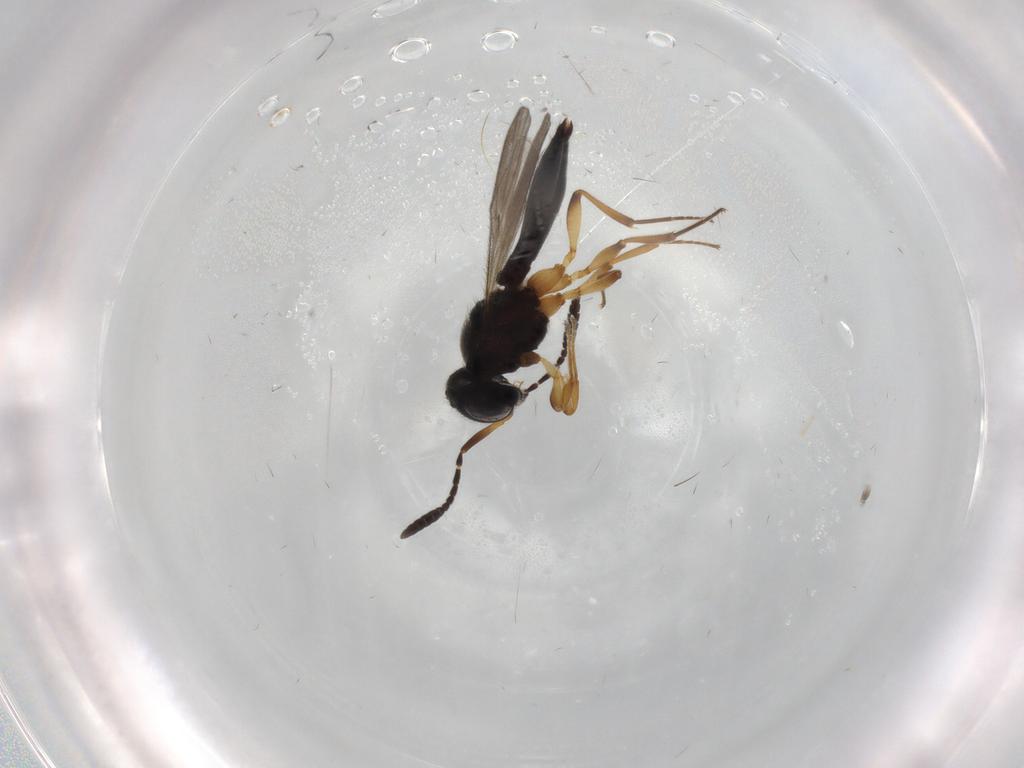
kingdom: Animalia
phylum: Arthropoda
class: Insecta
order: Hymenoptera
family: Scelionidae
